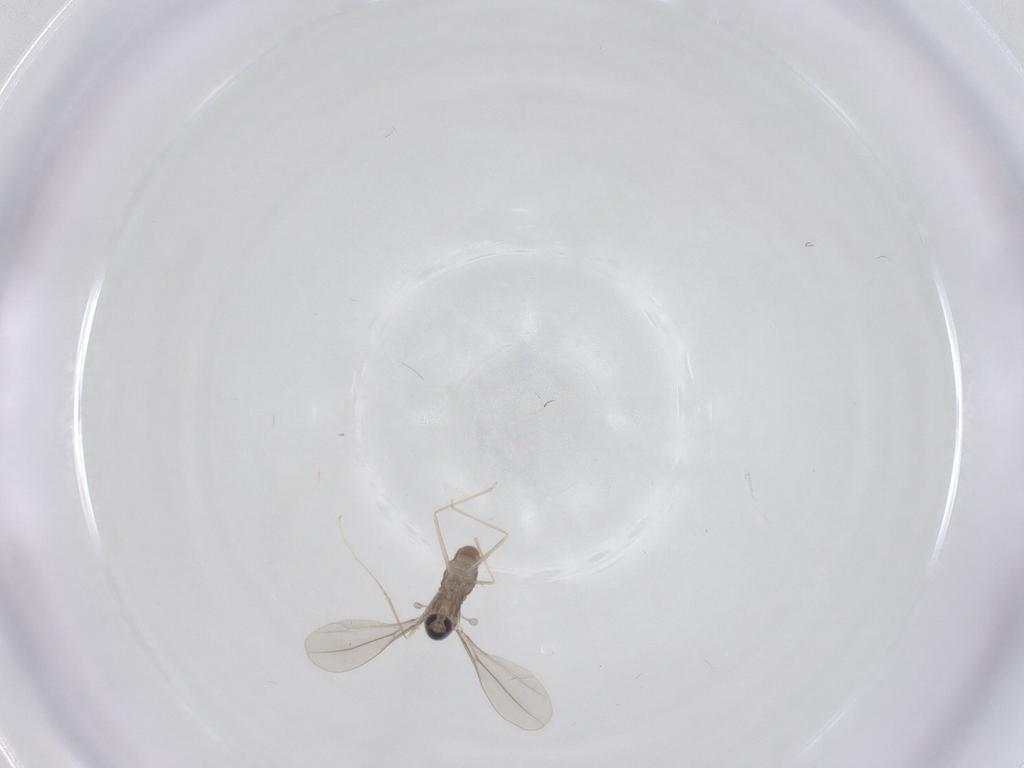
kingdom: Animalia
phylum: Arthropoda
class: Insecta
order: Diptera
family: Cecidomyiidae
